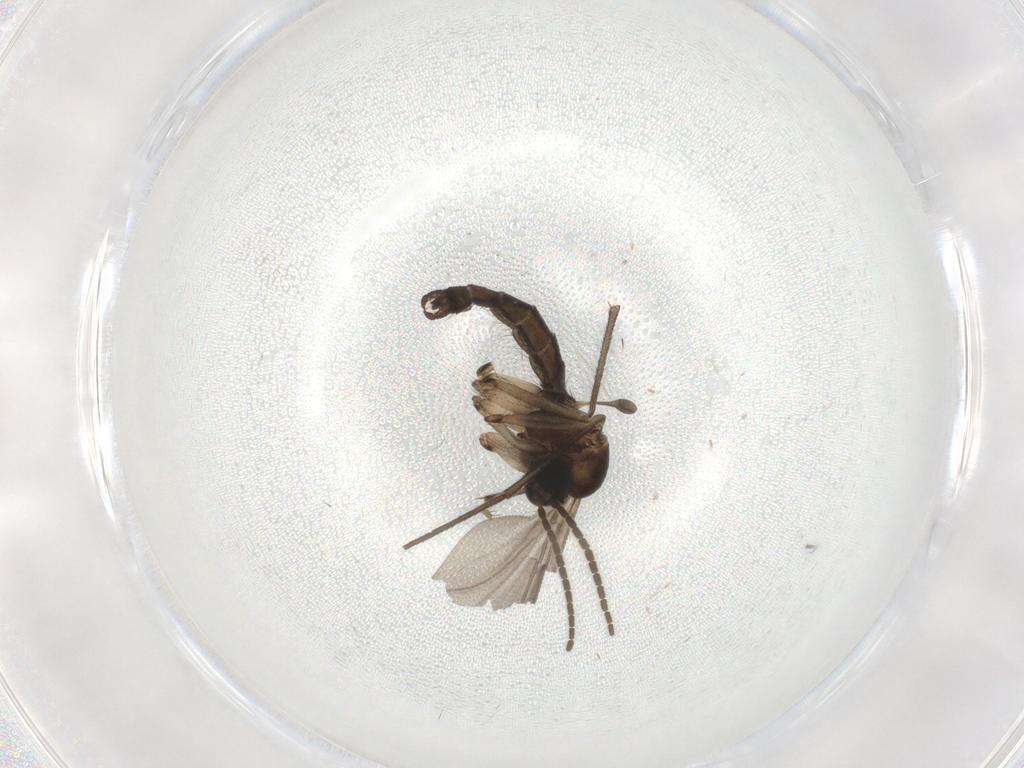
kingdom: Animalia
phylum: Arthropoda
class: Insecta
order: Diptera
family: Sciaridae
